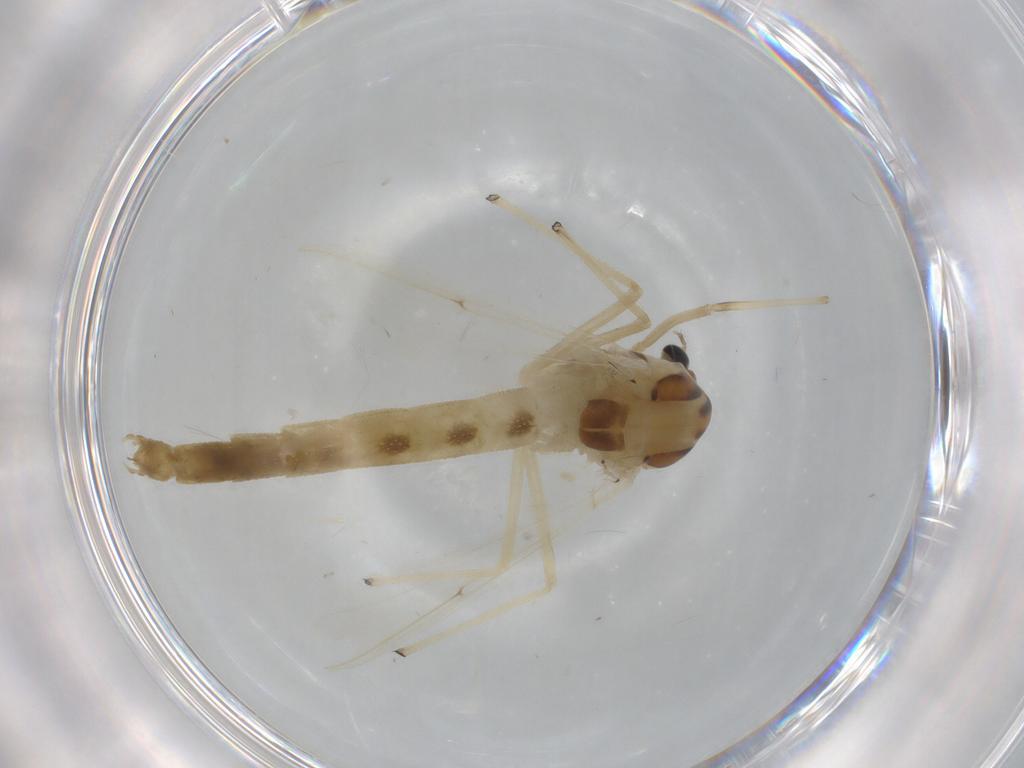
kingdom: Animalia
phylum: Arthropoda
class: Insecta
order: Diptera
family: Chironomidae
